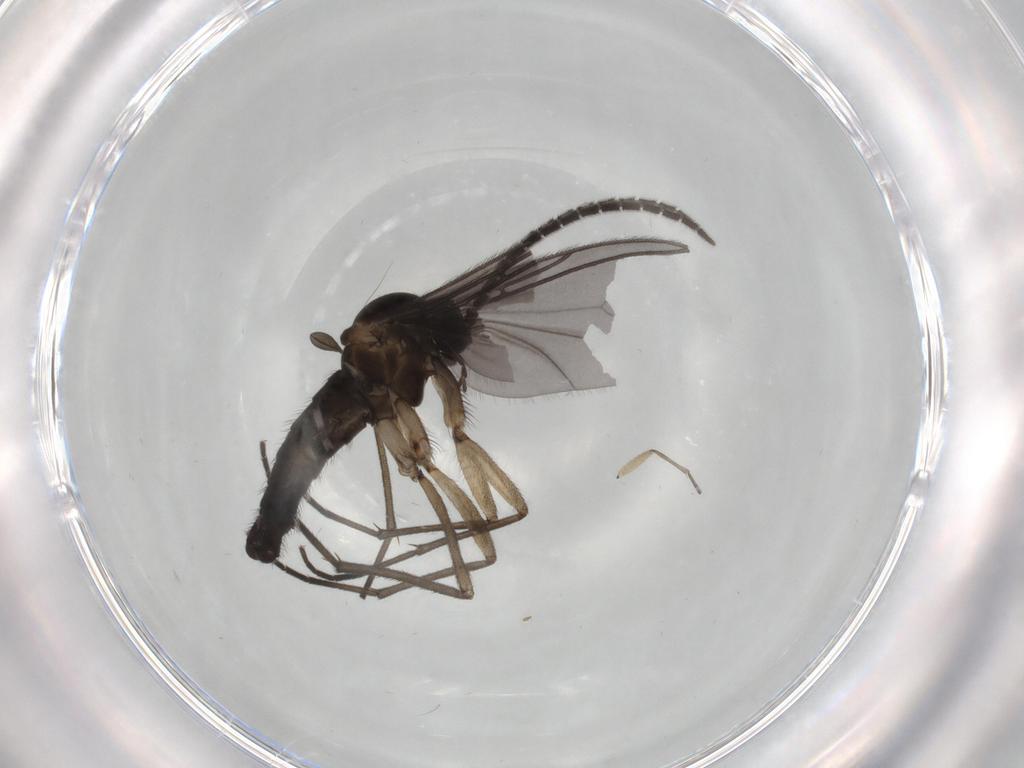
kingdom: Animalia
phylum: Arthropoda
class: Insecta
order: Diptera
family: Sciaridae
